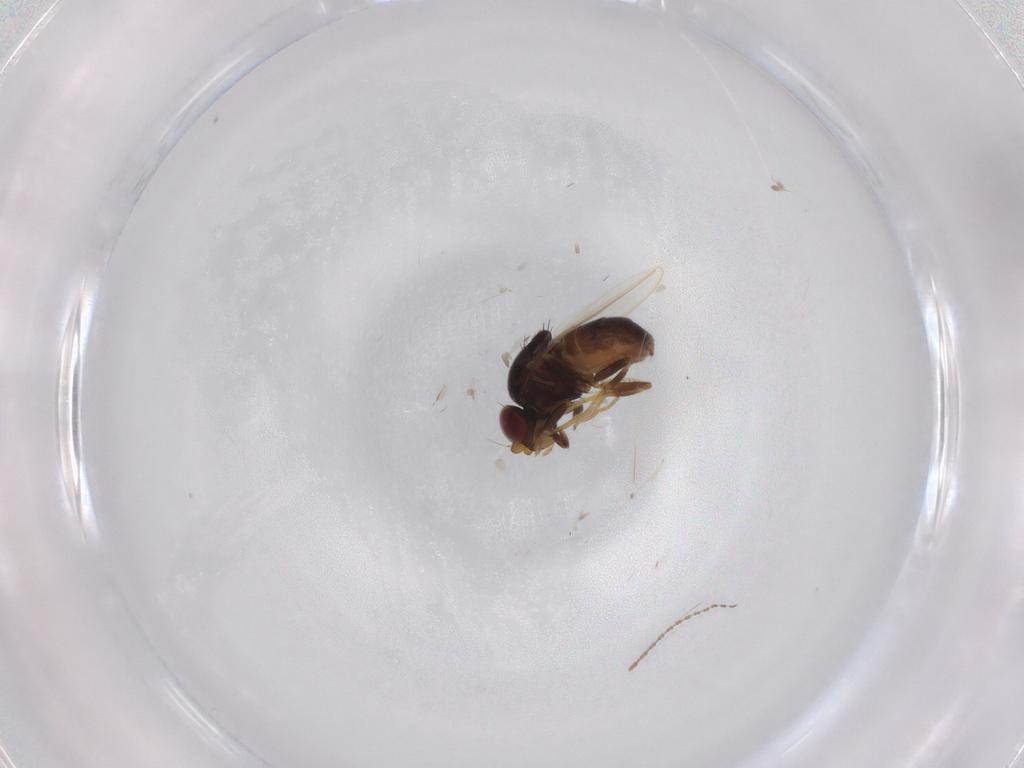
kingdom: Animalia
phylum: Arthropoda
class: Insecta
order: Diptera
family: Chloropidae
